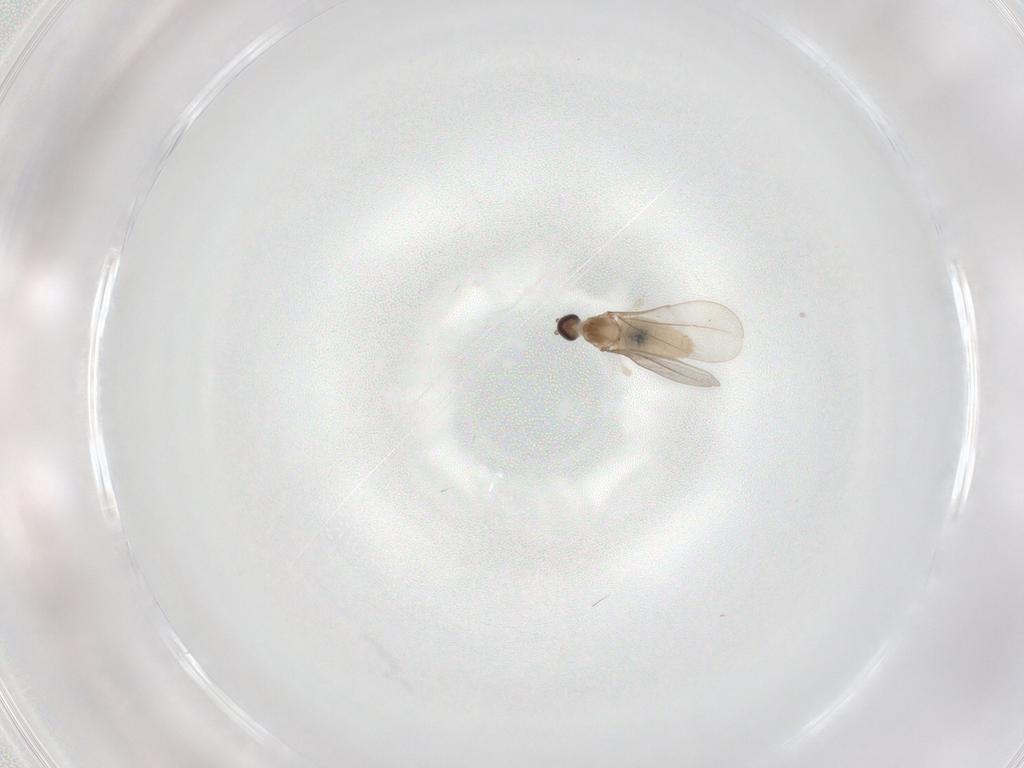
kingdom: Animalia
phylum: Arthropoda
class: Insecta
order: Diptera
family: Cecidomyiidae
